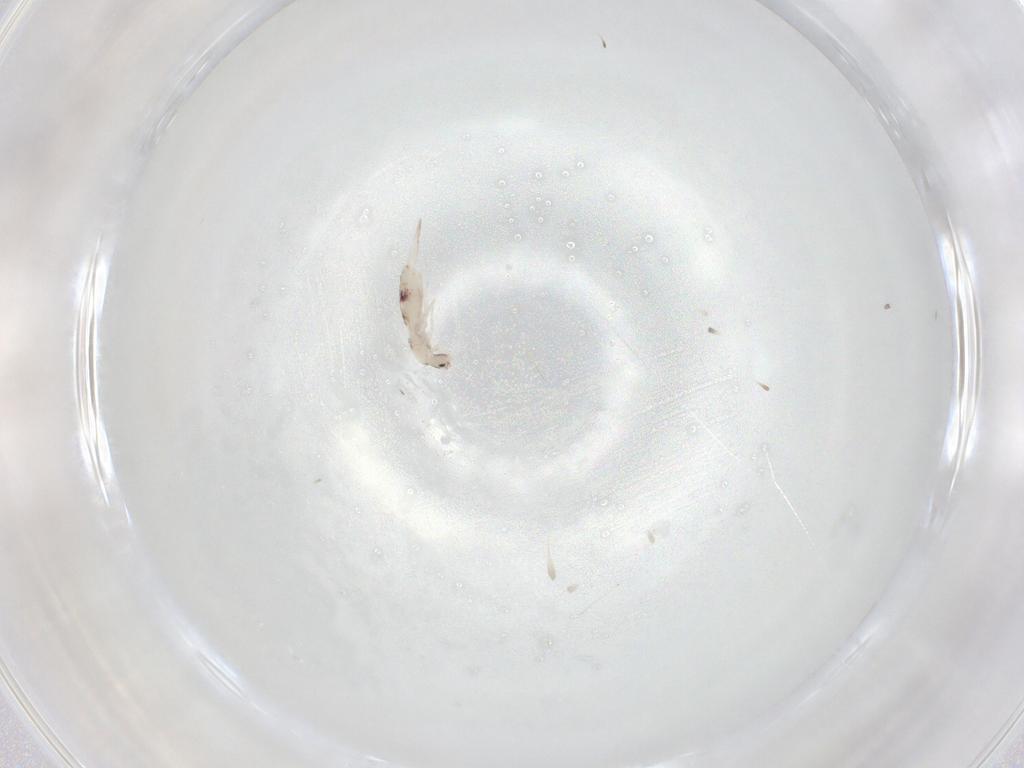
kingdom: Animalia
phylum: Arthropoda
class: Collembola
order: Entomobryomorpha
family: Entomobryidae
